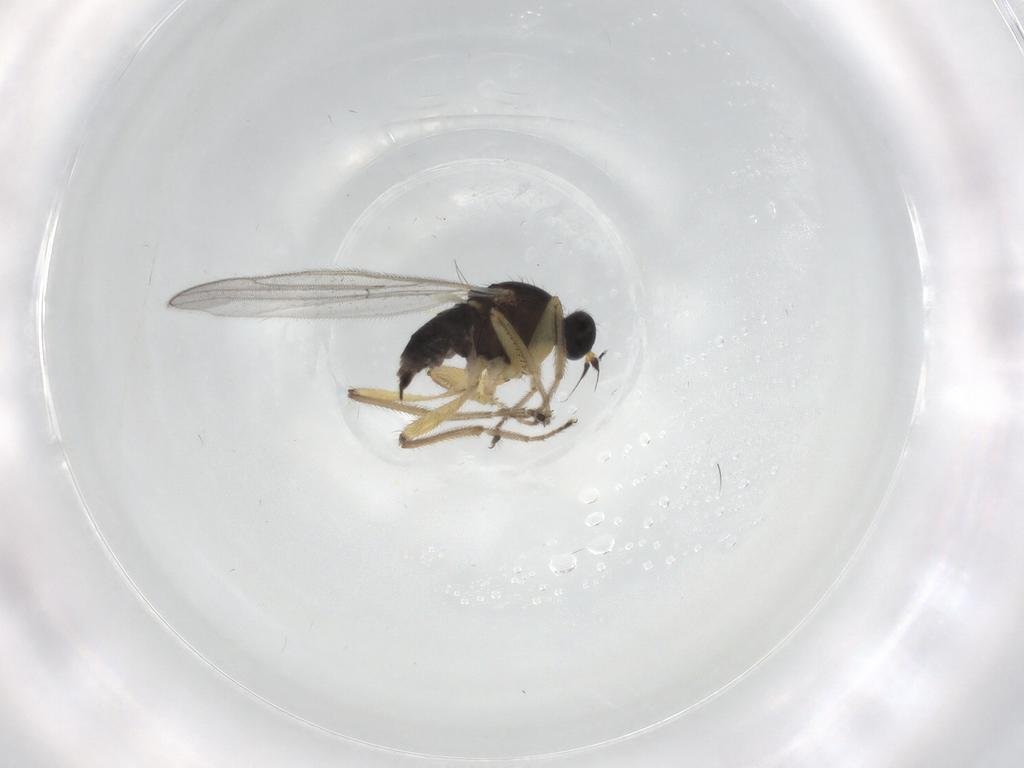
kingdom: Animalia
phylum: Arthropoda
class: Insecta
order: Diptera
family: Hybotidae
